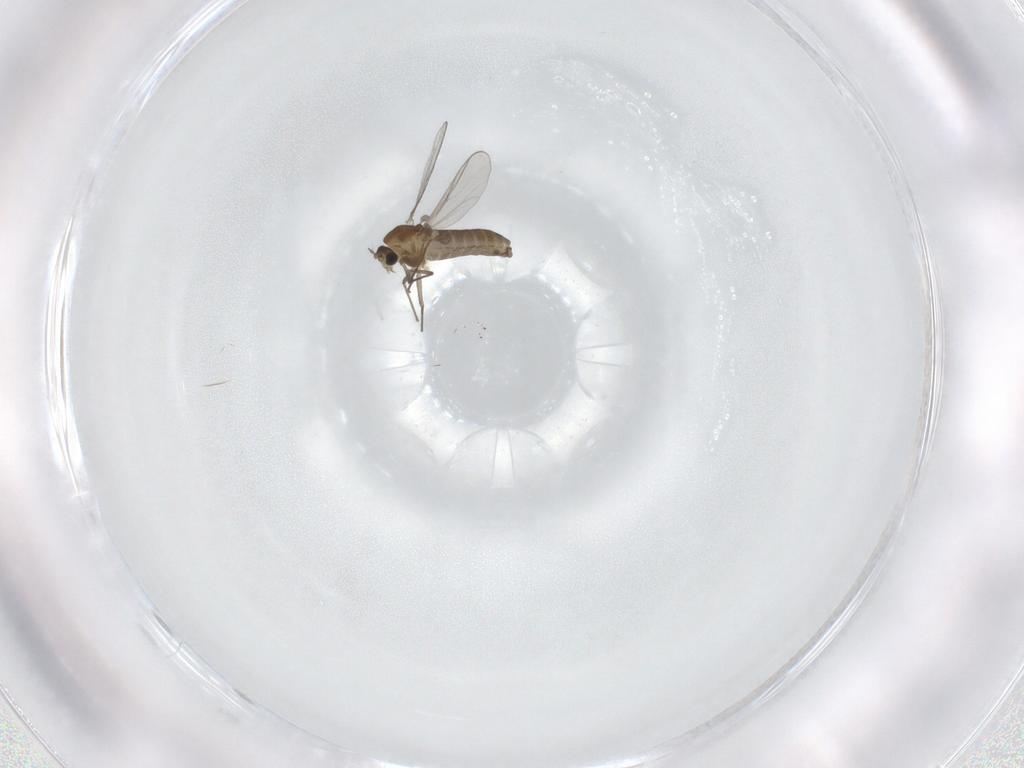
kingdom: Animalia
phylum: Arthropoda
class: Insecta
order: Diptera
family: Chironomidae
